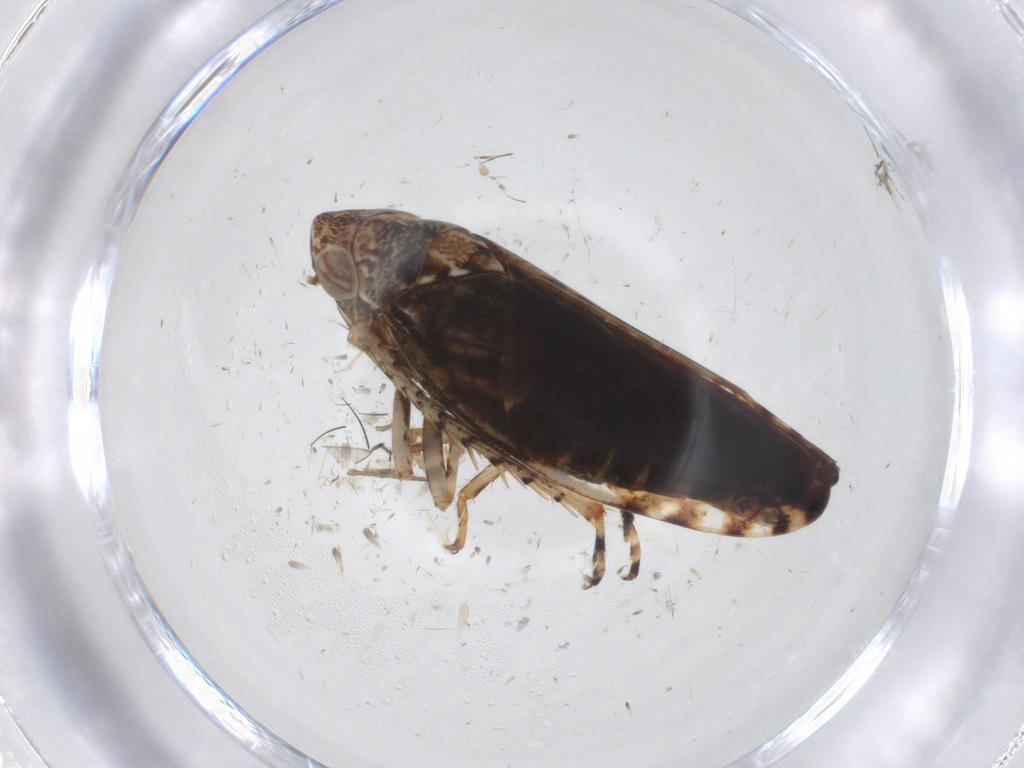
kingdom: Animalia
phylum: Arthropoda
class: Insecta
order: Hemiptera
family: Cicadellidae
